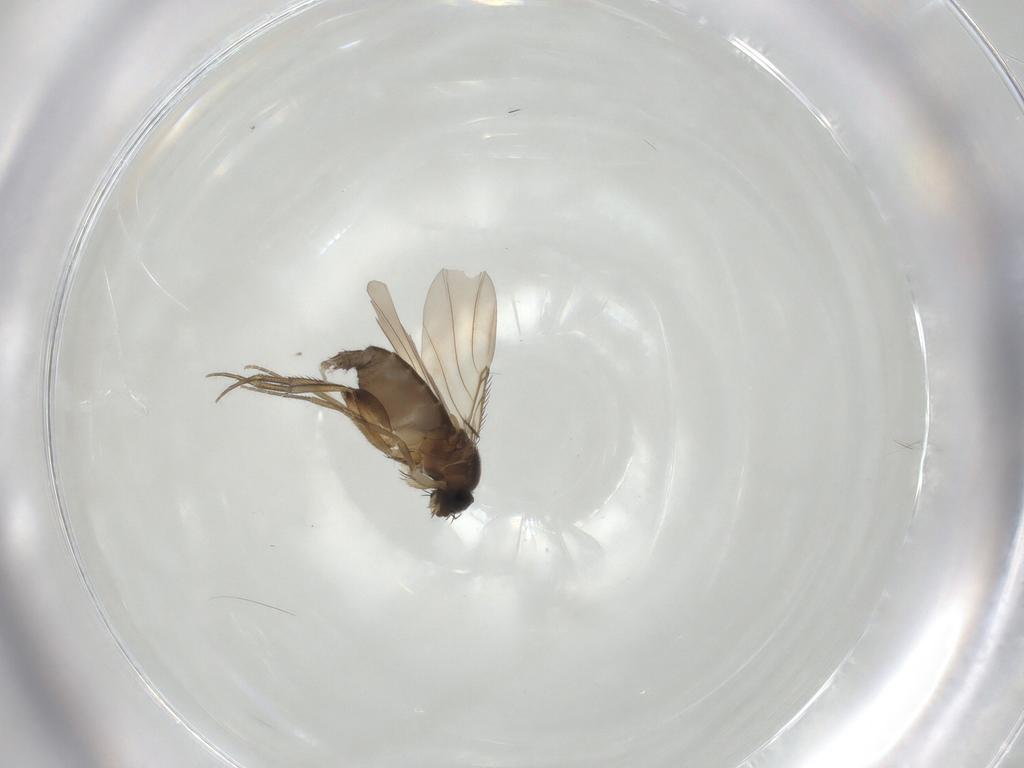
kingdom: Animalia
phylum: Arthropoda
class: Insecta
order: Diptera
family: Phoridae
